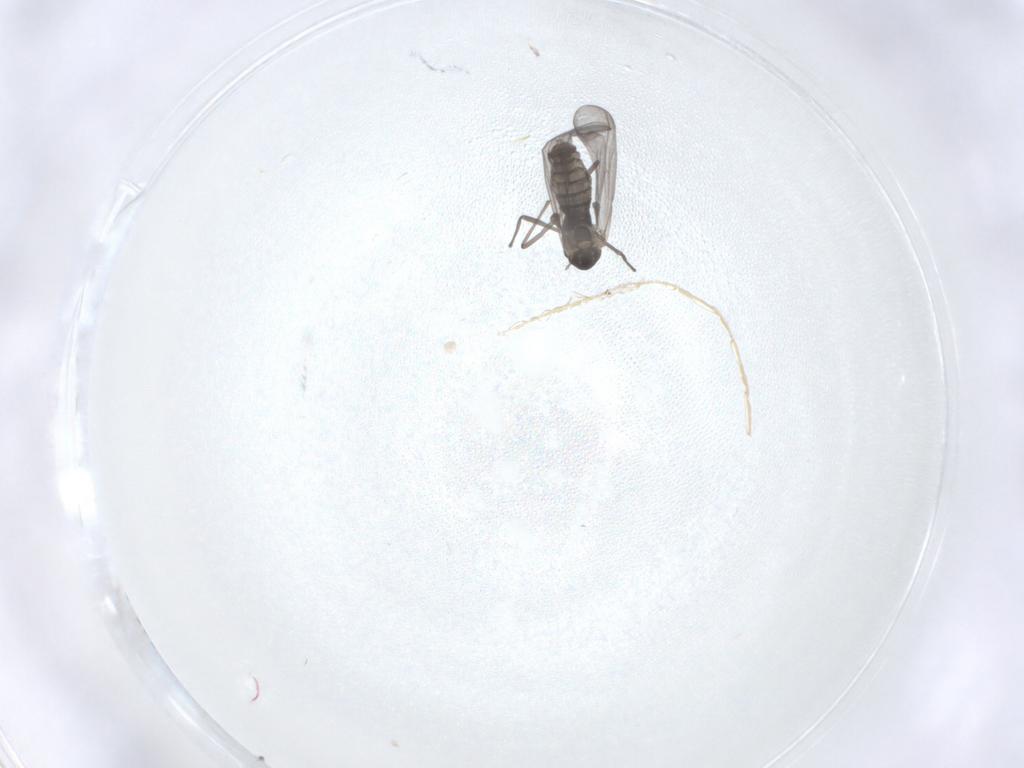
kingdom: Animalia
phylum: Arthropoda
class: Insecta
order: Diptera
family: Chironomidae
